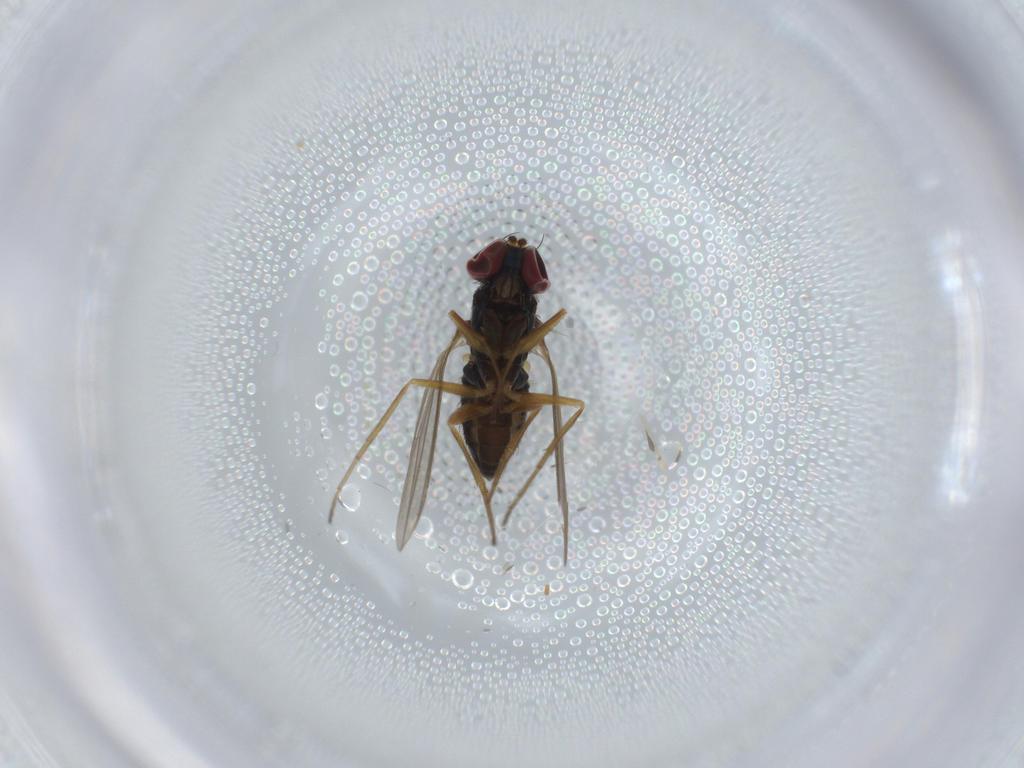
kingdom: Animalia
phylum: Arthropoda
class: Insecta
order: Diptera
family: Dolichopodidae
